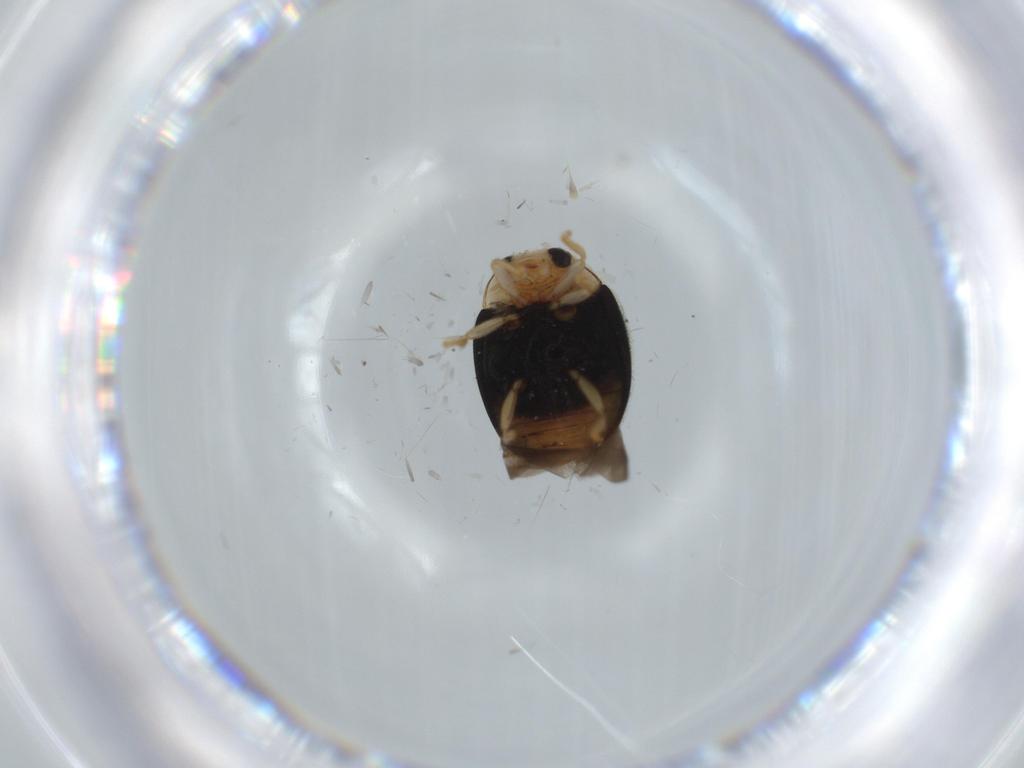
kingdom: Animalia
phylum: Arthropoda
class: Insecta
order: Coleoptera
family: Coccinellidae
